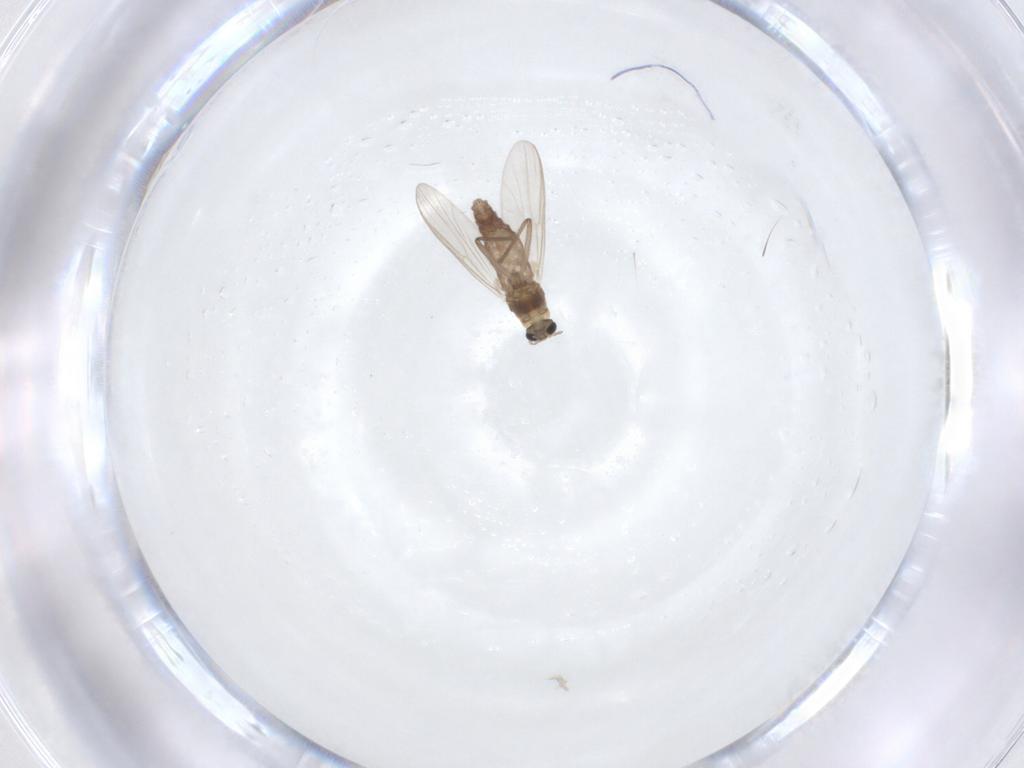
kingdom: Animalia
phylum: Arthropoda
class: Insecta
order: Diptera
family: Chironomidae
